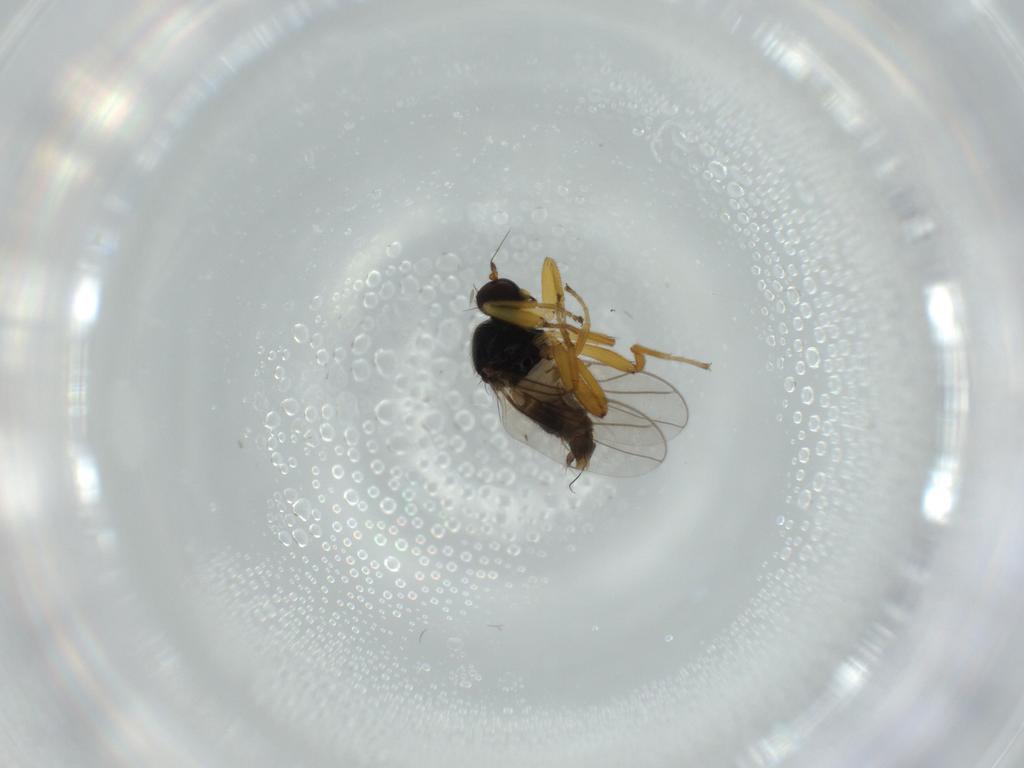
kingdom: Animalia
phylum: Arthropoda
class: Insecta
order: Diptera
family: Hybotidae
